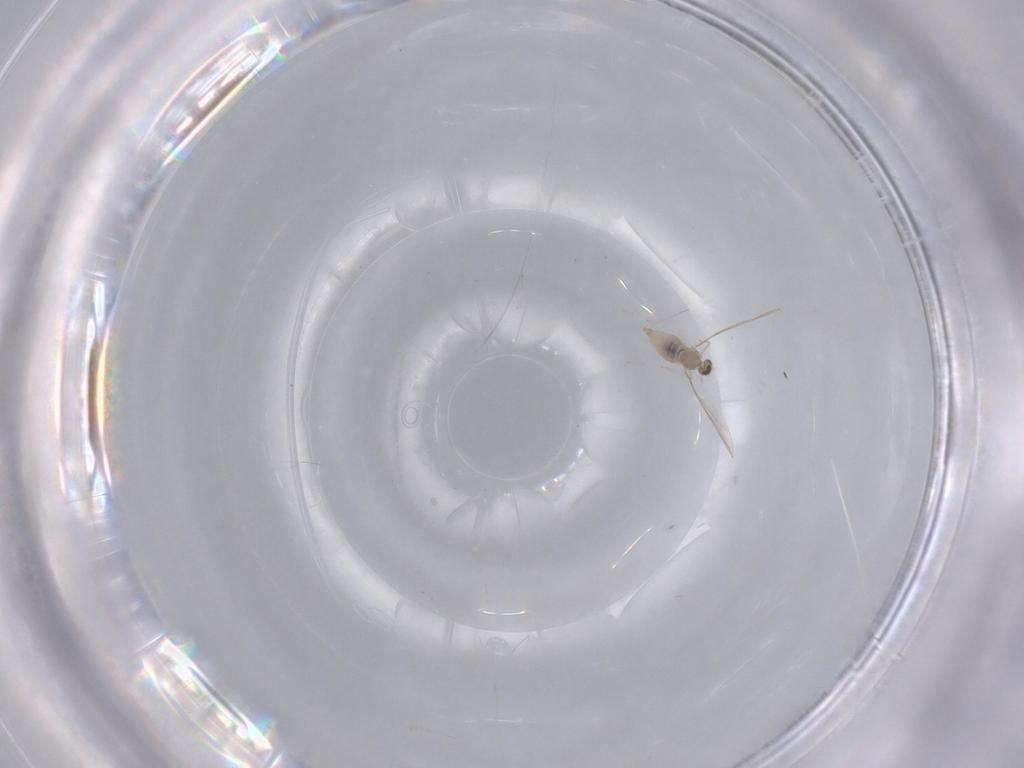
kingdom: Animalia
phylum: Arthropoda
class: Insecta
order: Diptera
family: Cecidomyiidae
